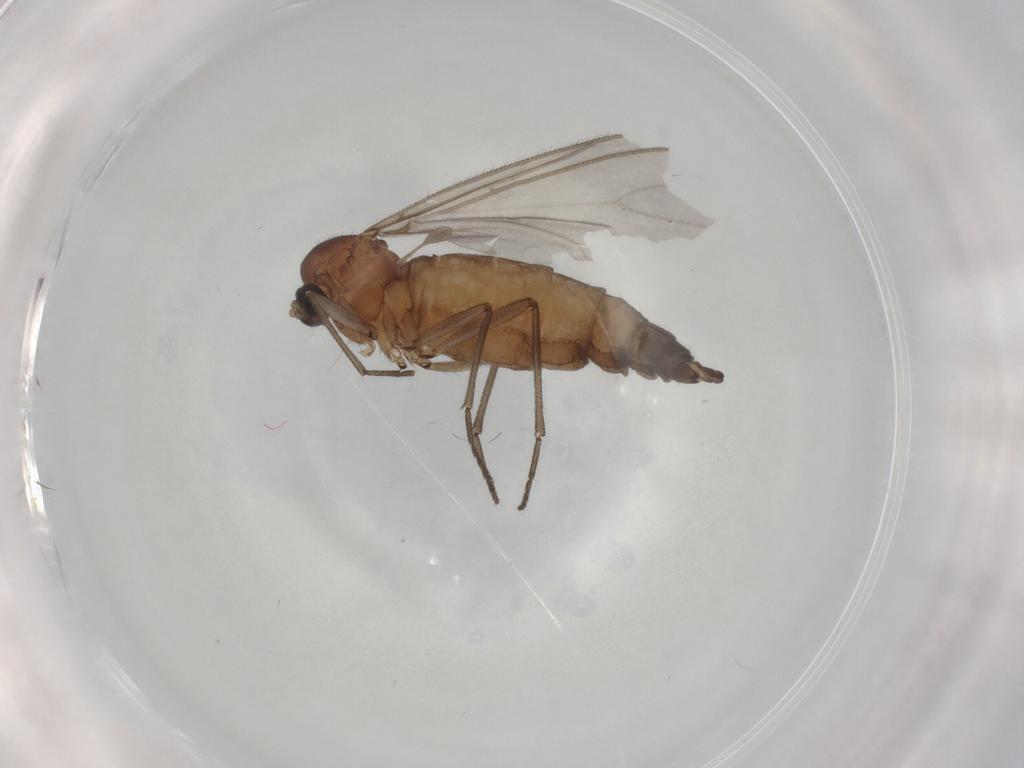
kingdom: Animalia
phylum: Arthropoda
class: Insecta
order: Diptera
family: Sciaridae
